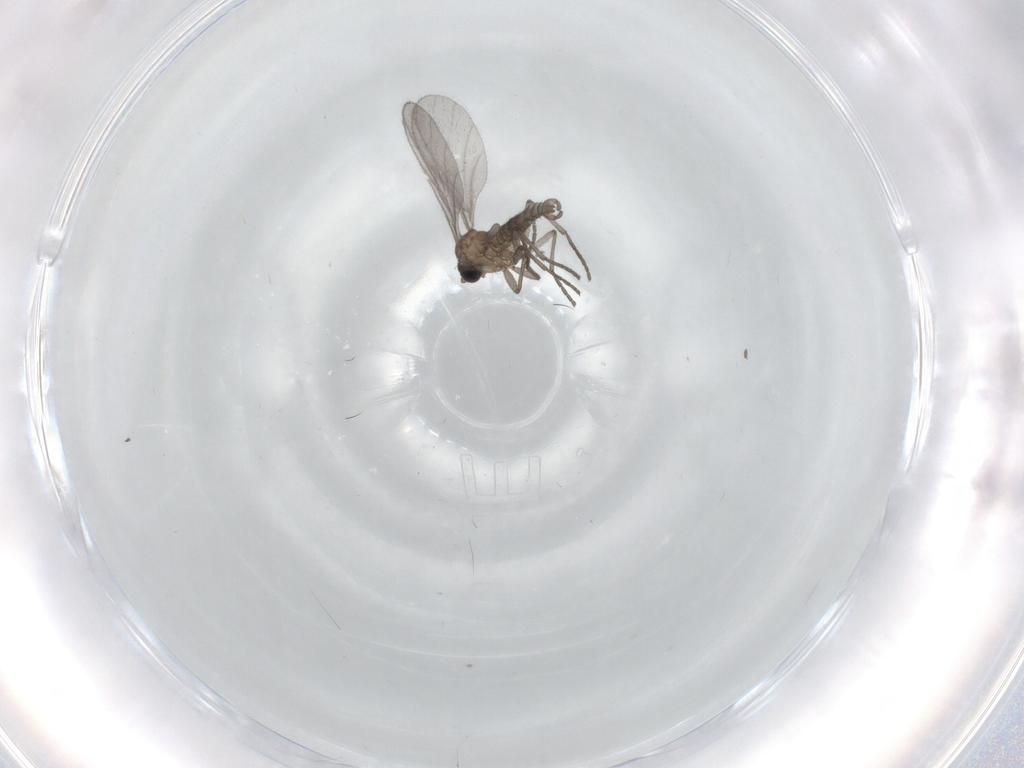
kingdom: Animalia
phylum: Arthropoda
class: Insecta
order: Diptera
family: Sciaridae
